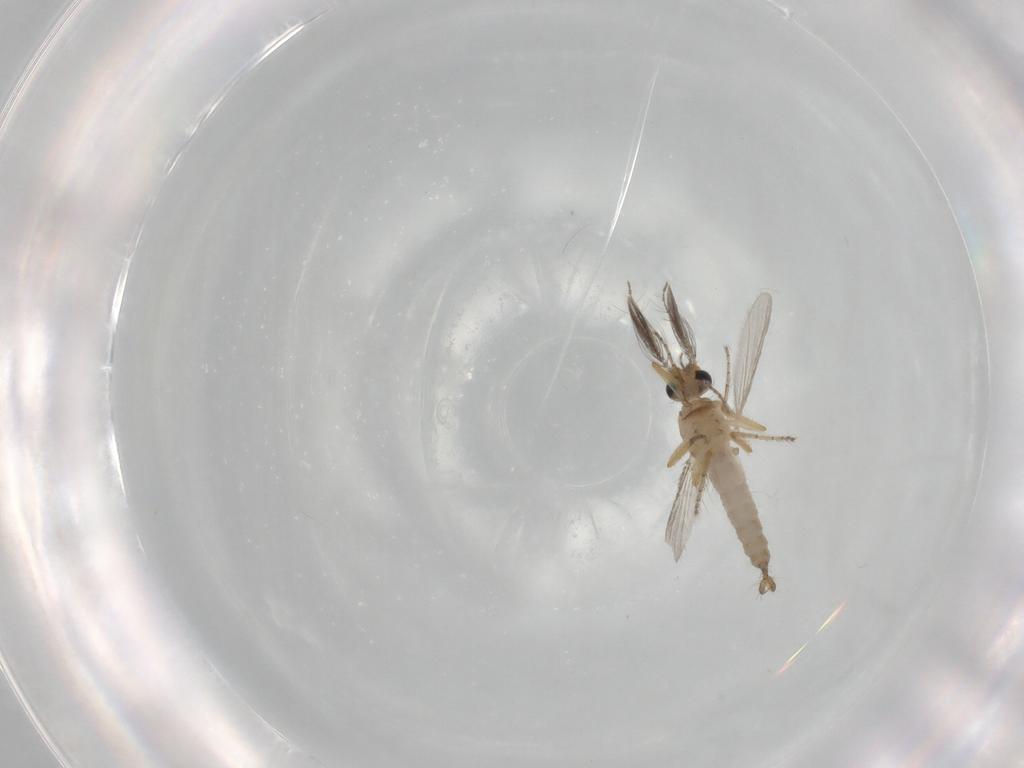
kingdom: Animalia
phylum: Arthropoda
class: Insecta
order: Diptera
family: Ceratopogonidae
